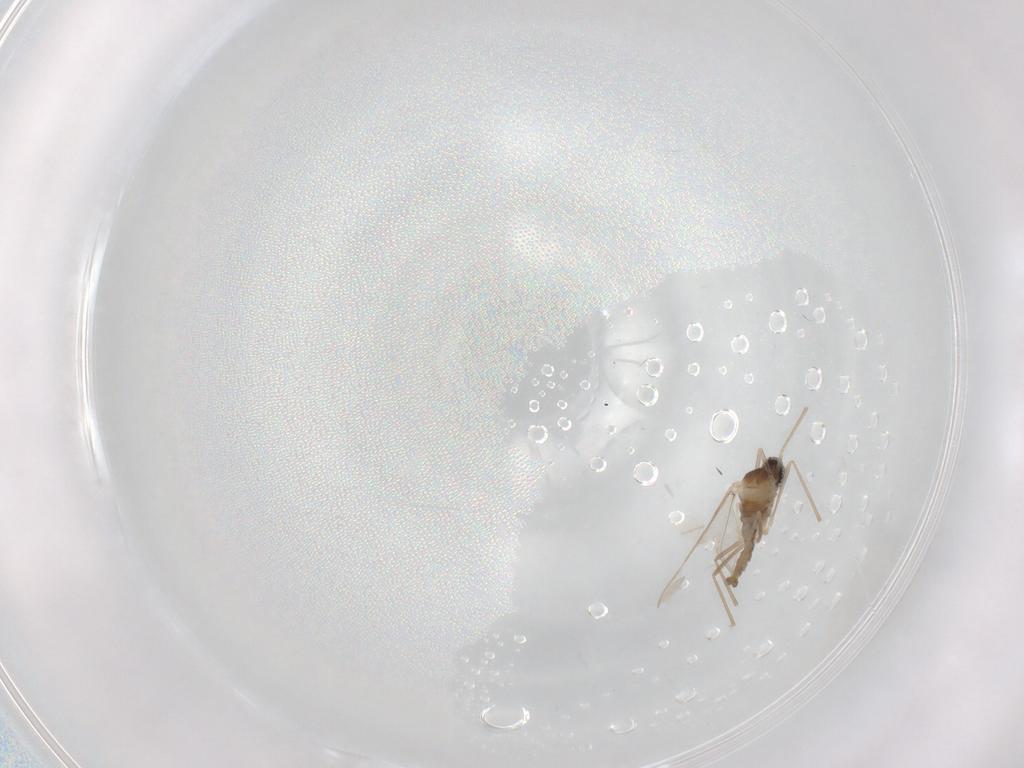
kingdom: Animalia
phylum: Arthropoda
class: Insecta
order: Diptera
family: Cecidomyiidae
